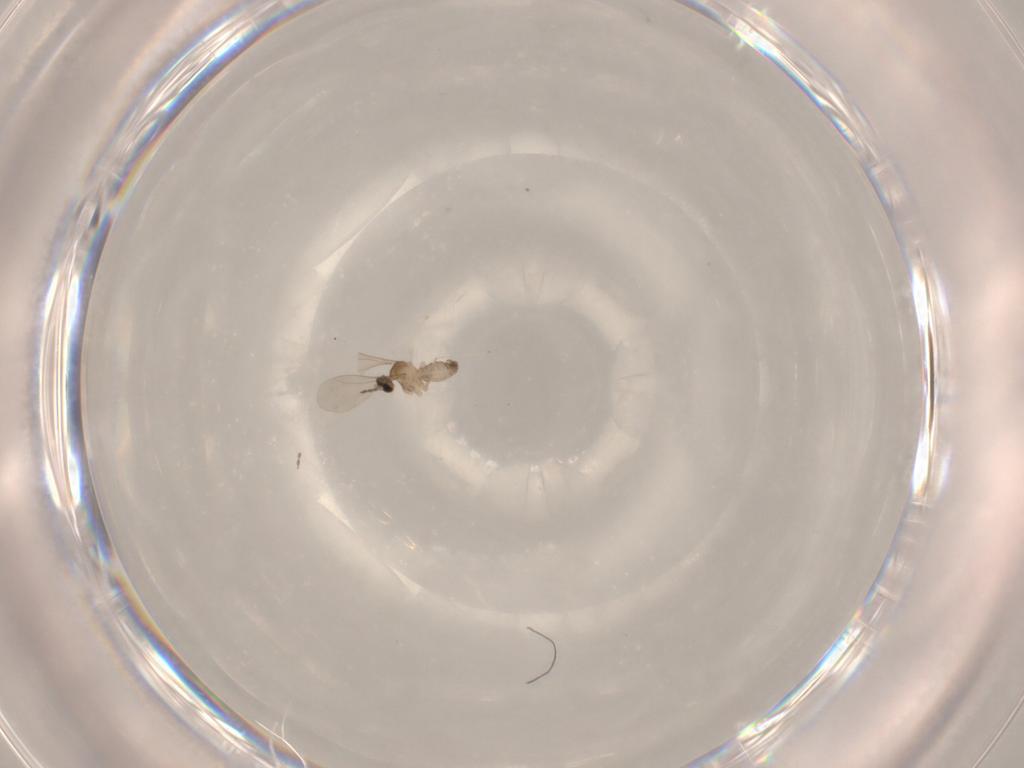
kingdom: Animalia
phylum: Arthropoda
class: Insecta
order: Diptera
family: Cecidomyiidae
